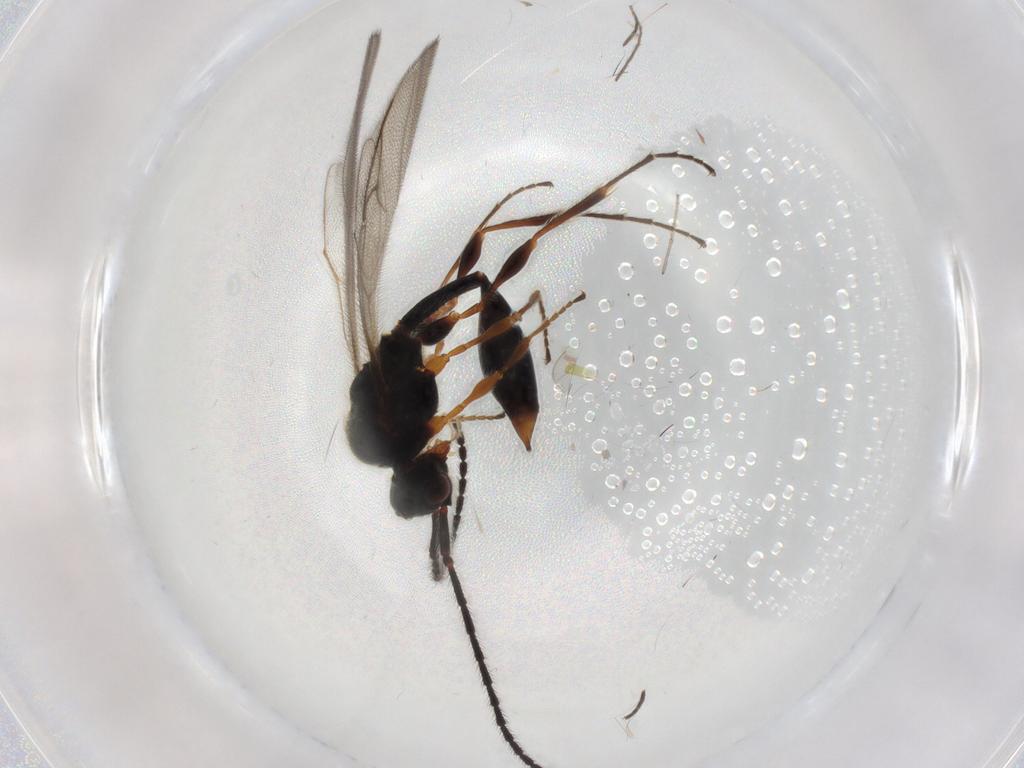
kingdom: Animalia
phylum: Arthropoda
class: Insecta
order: Hymenoptera
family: Diapriidae
